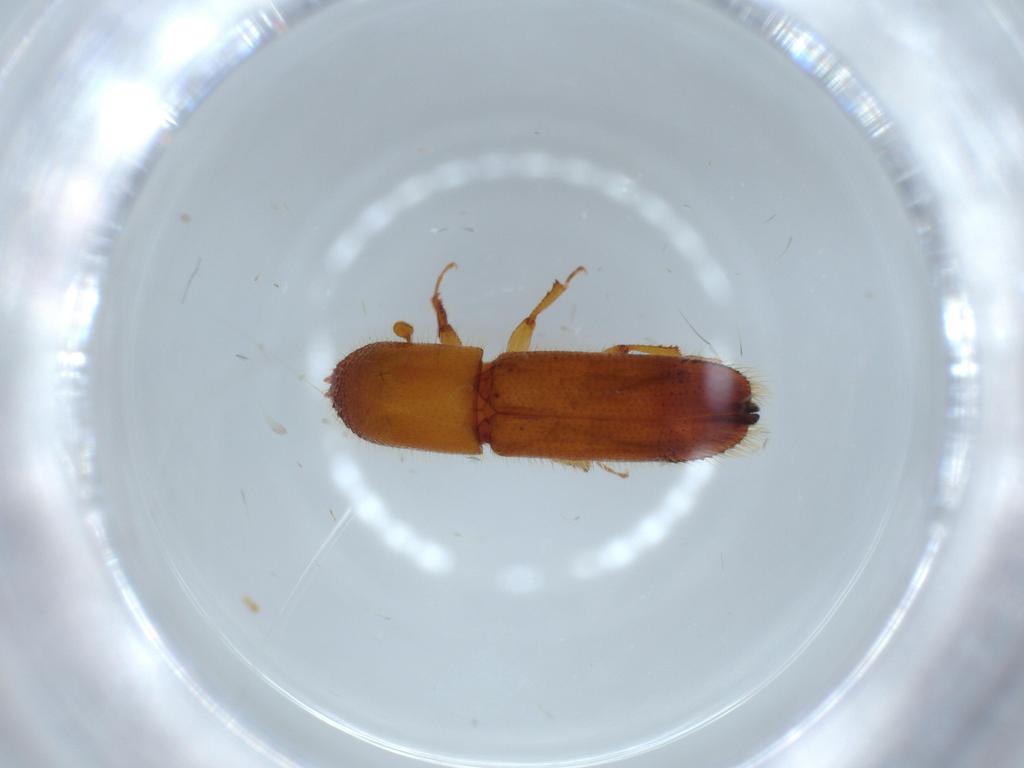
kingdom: Animalia
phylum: Arthropoda
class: Insecta
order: Coleoptera
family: Curculionidae
